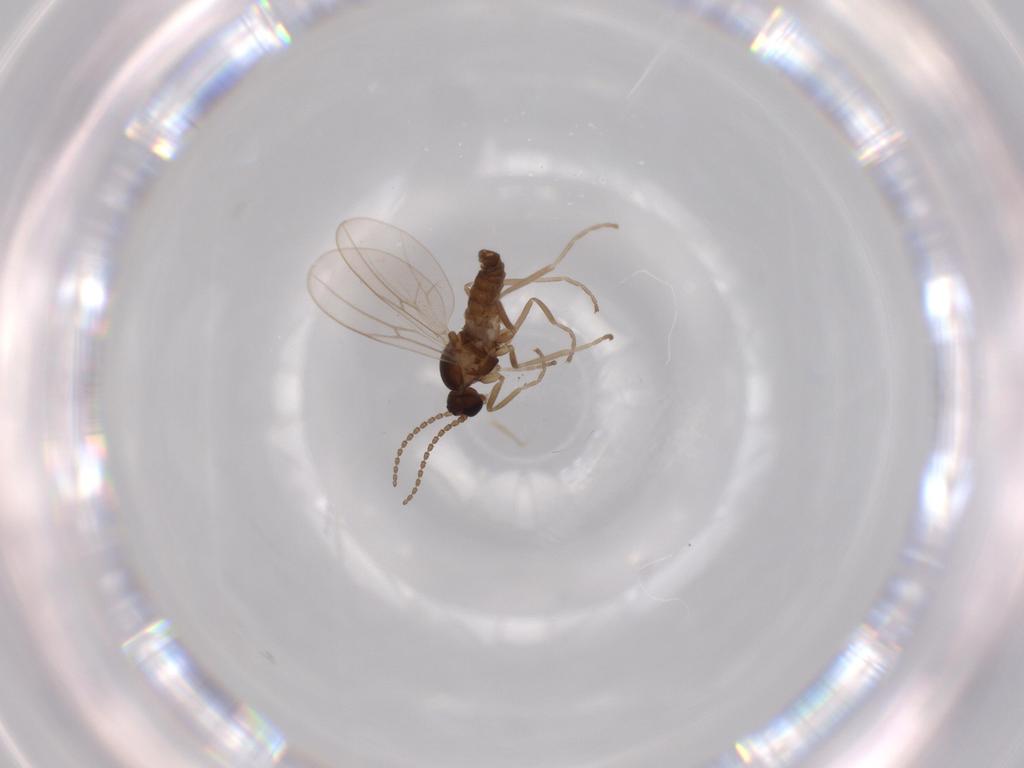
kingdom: Animalia
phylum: Arthropoda
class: Insecta
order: Diptera
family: Cecidomyiidae
